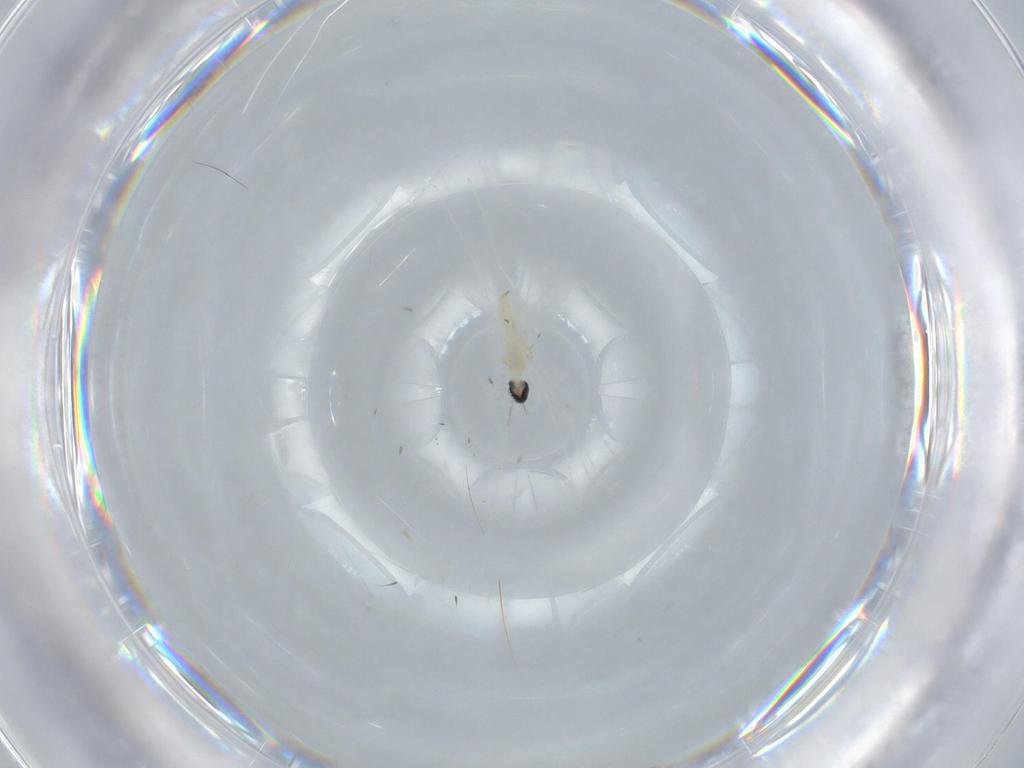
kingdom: Animalia
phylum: Arthropoda
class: Insecta
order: Diptera
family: Cecidomyiidae
